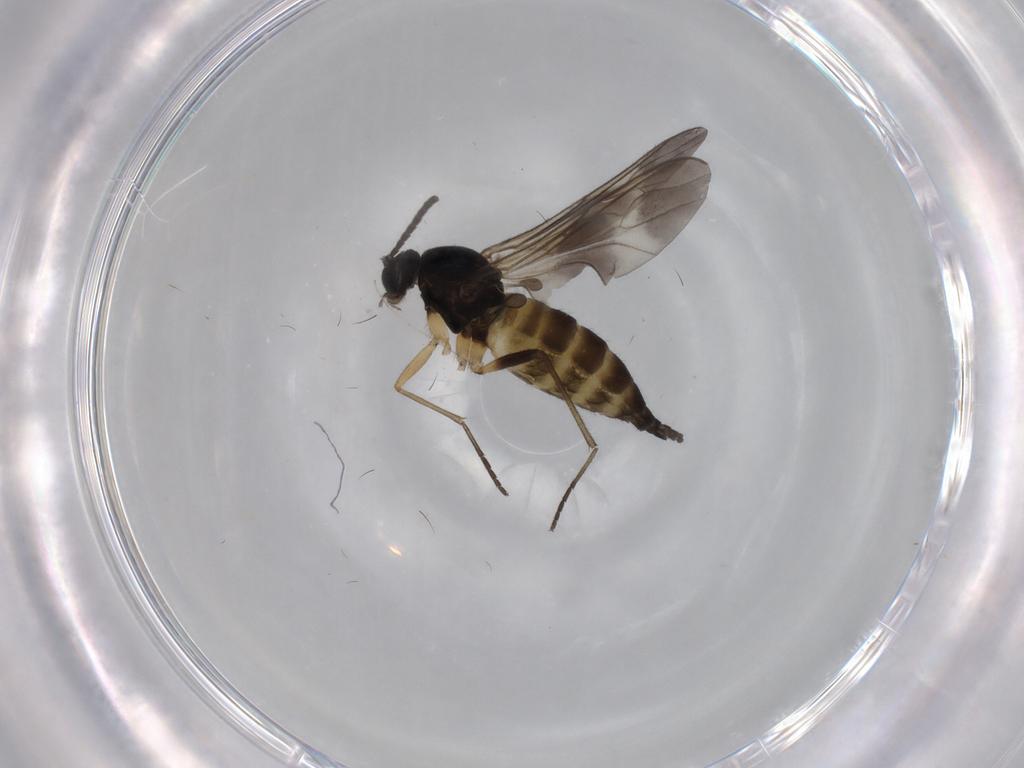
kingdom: Animalia
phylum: Arthropoda
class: Insecta
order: Diptera
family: Sciaridae
